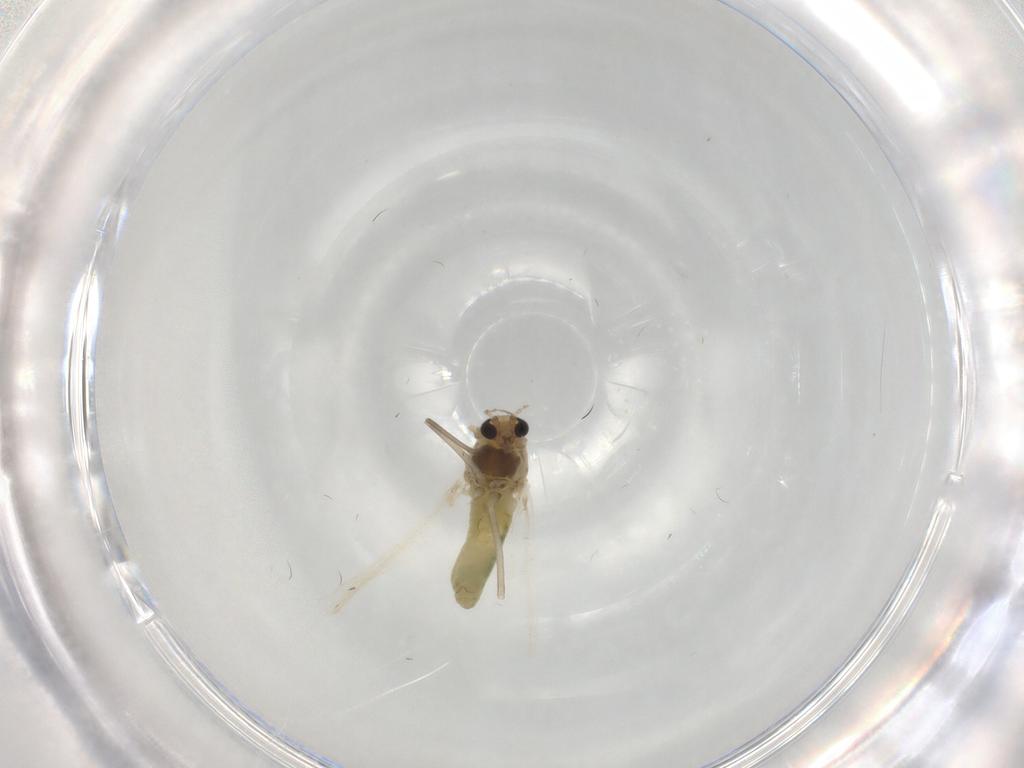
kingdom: Animalia
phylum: Arthropoda
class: Insecta
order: Diptera
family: Chironomidae
